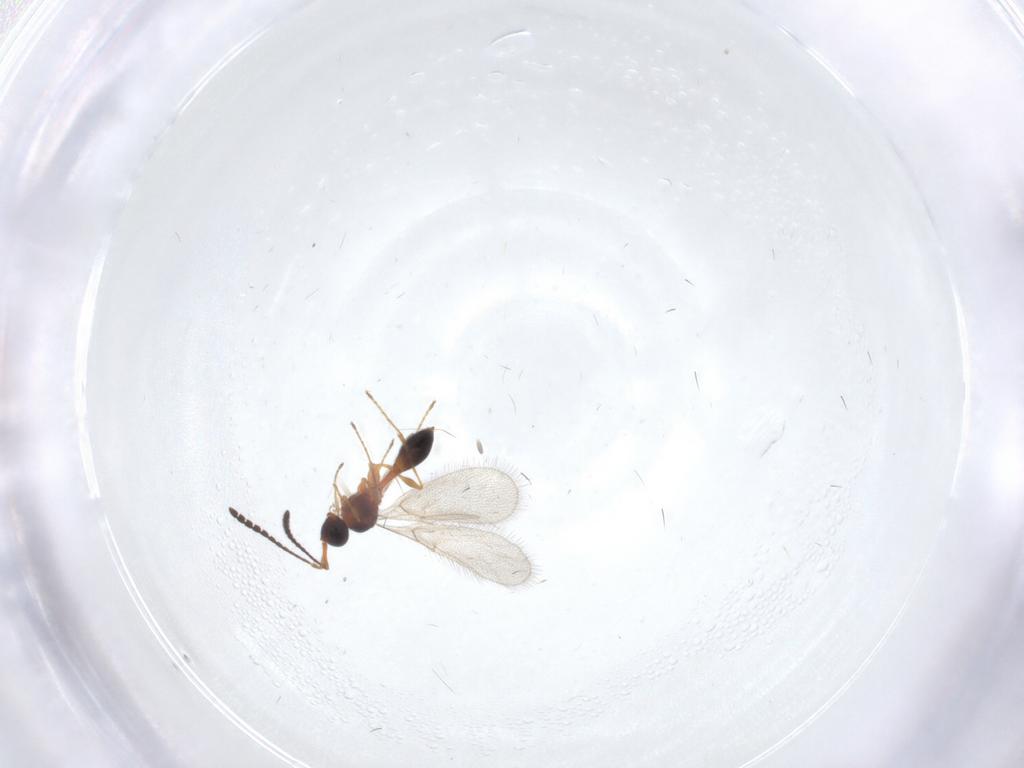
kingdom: Animalia
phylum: Arthropoda
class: Insecta
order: Hymenoptera
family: Diapriidae
